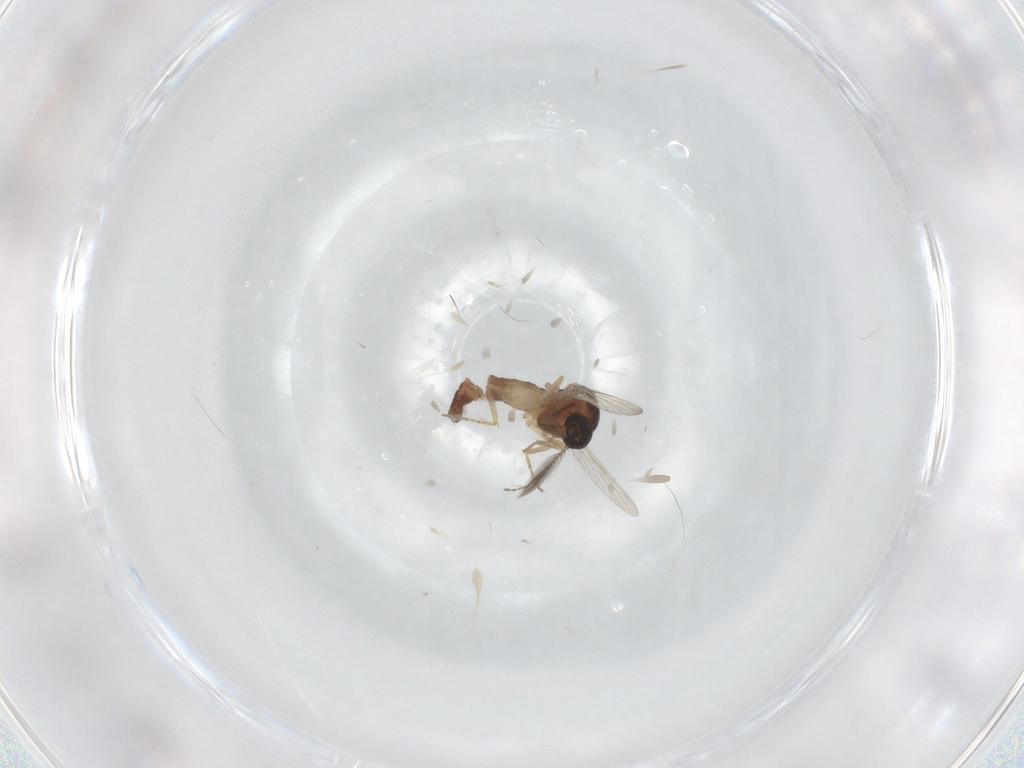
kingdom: Animalia
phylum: Arthropoda
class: Insecta
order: Diptera
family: Ceratopogonidae
